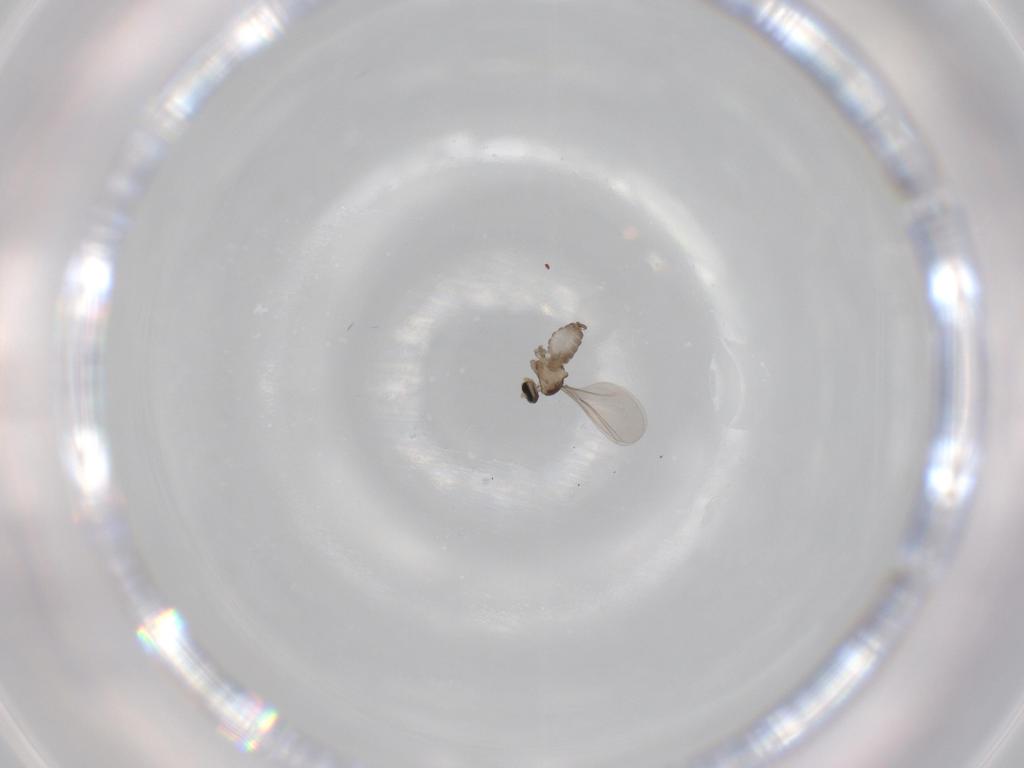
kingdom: Animalia
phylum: Arthropoda
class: Insecta
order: Diptera
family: Cecidomyiidae
